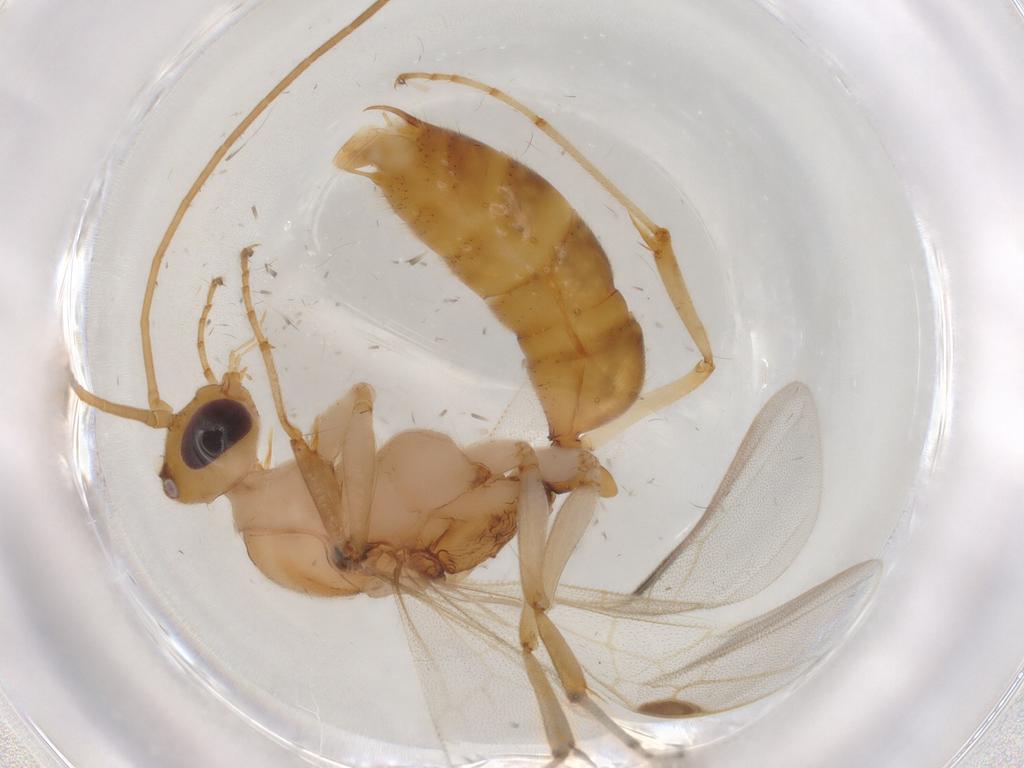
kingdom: Animalia
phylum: Arthropoda
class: Insecta
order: Hymenoptera
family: Formicidae
